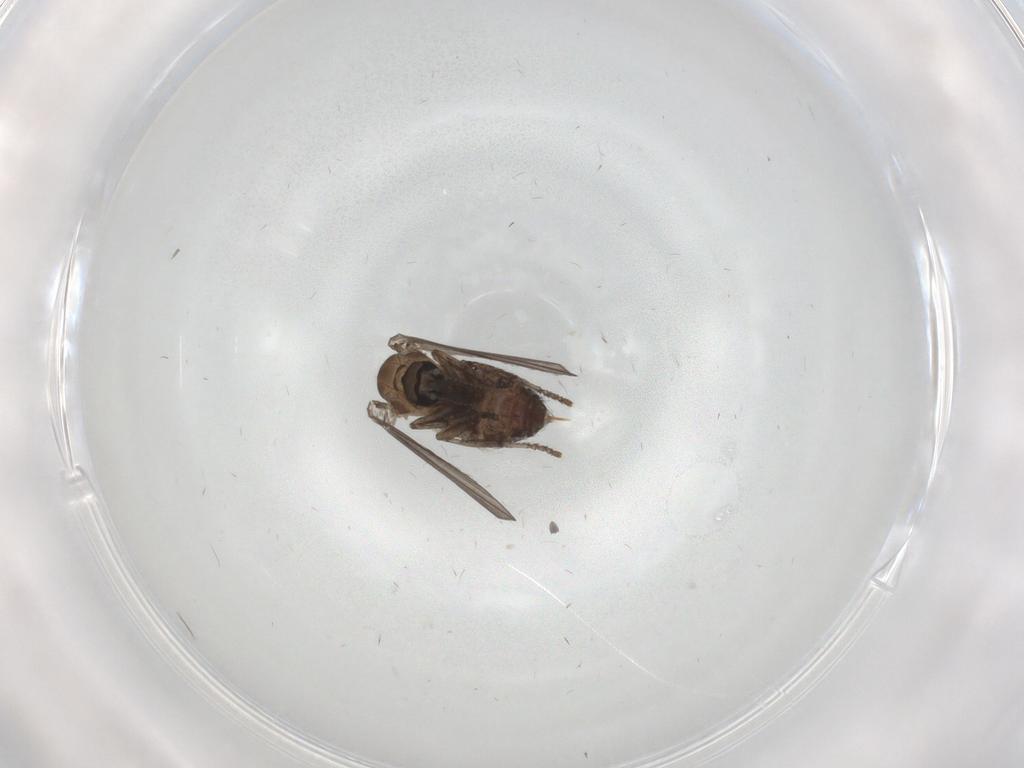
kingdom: Animalia
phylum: Arthropoda
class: Insecta
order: Diptera
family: Psychodidae
